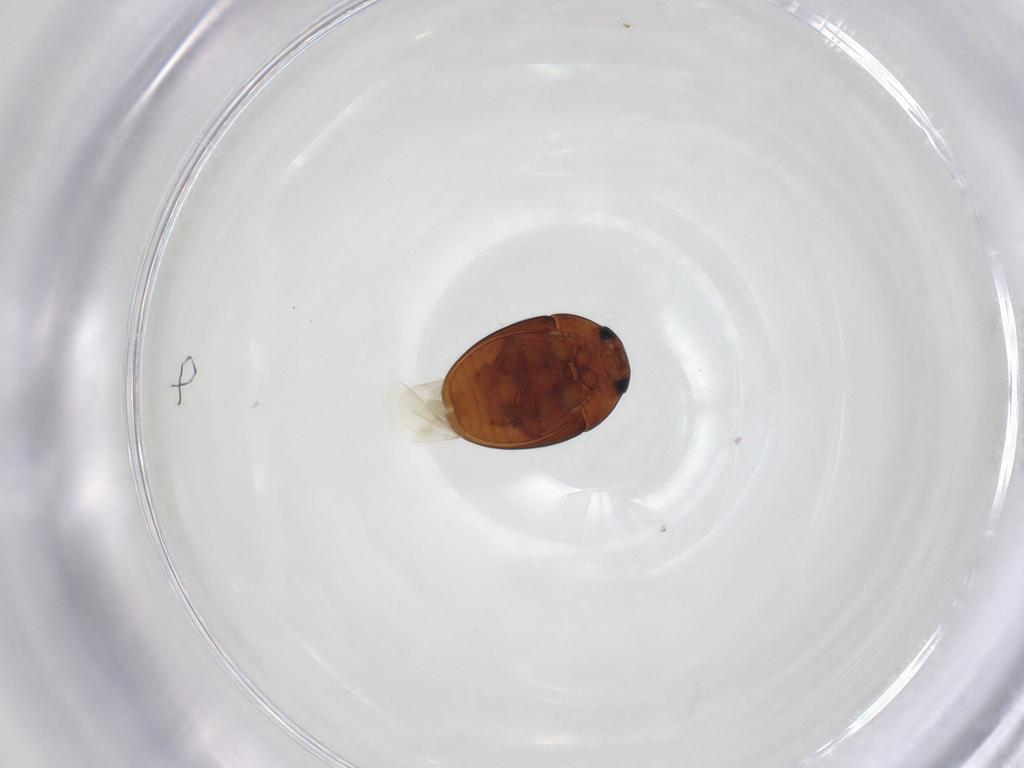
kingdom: Animalia
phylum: Arthropoda
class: Insecta
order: Coleoptera
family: Phalacridae
